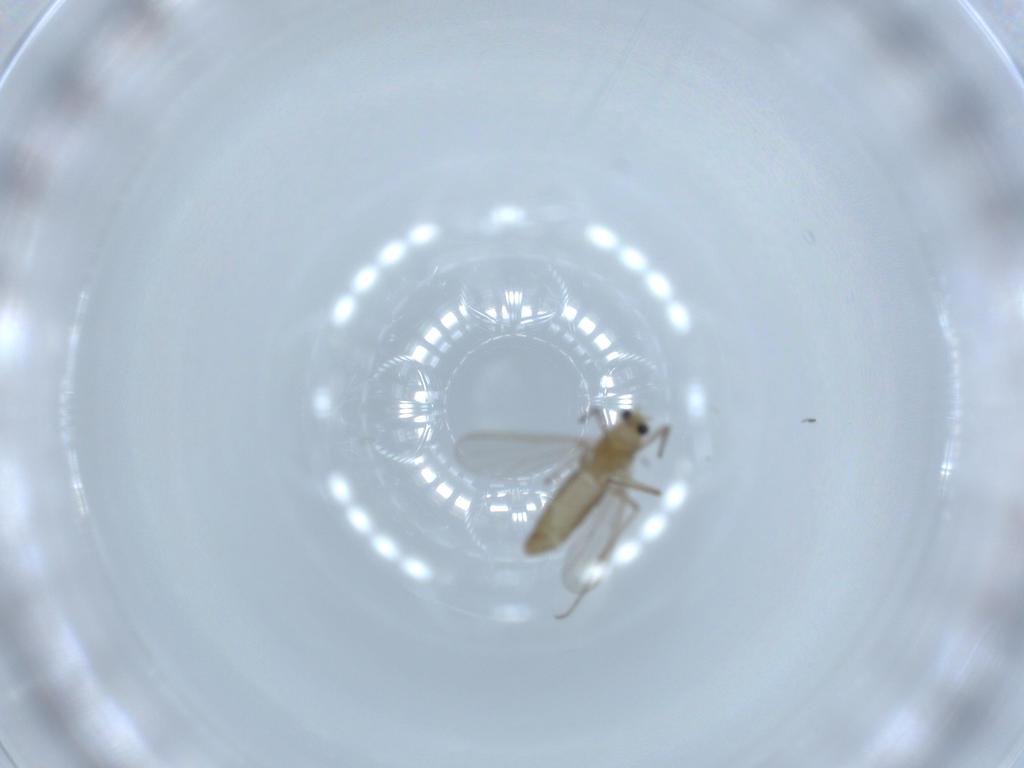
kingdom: Animalia
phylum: Arthropoda
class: Insecta
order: Diptera
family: Chironomidae
